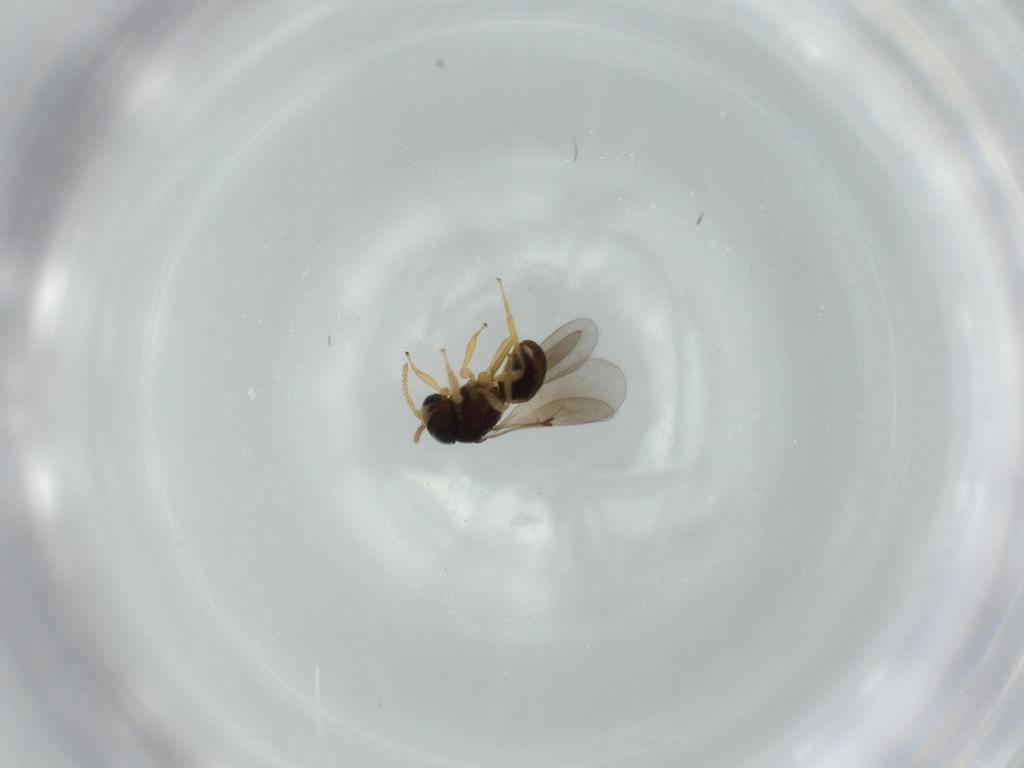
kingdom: Animalia
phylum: Arthropoda
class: Insecta
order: Hymenoptera
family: Scelionidae
